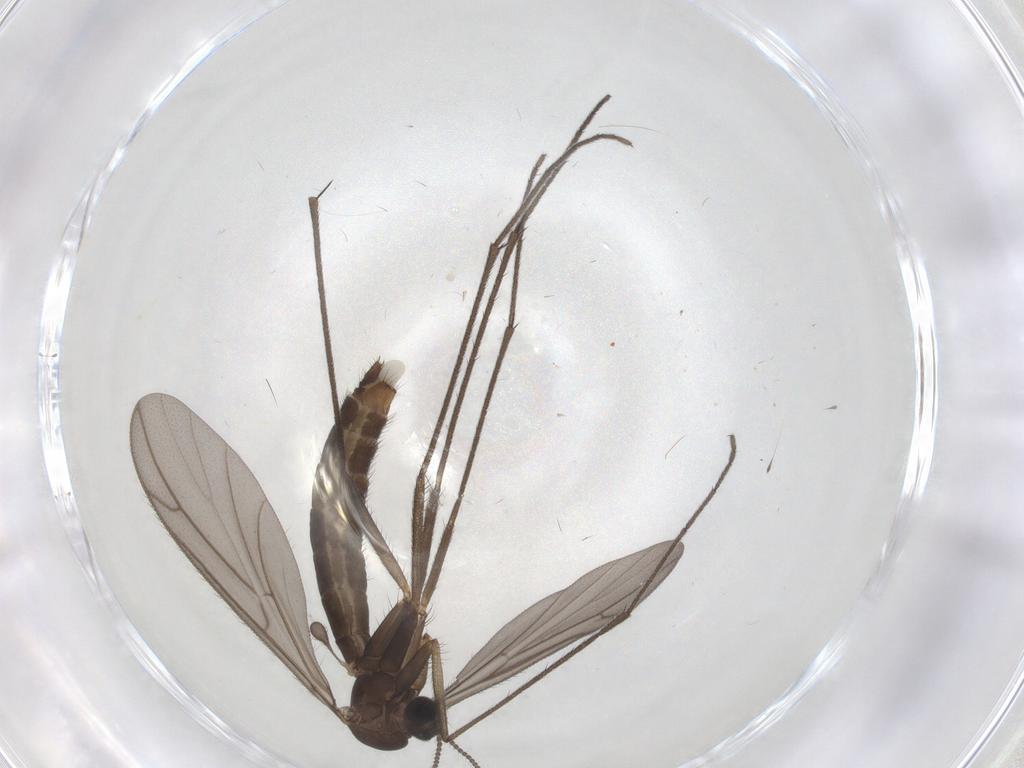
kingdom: Animalia
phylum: Arthropoda
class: Insecta
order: Diptera
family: Keroplatidae
